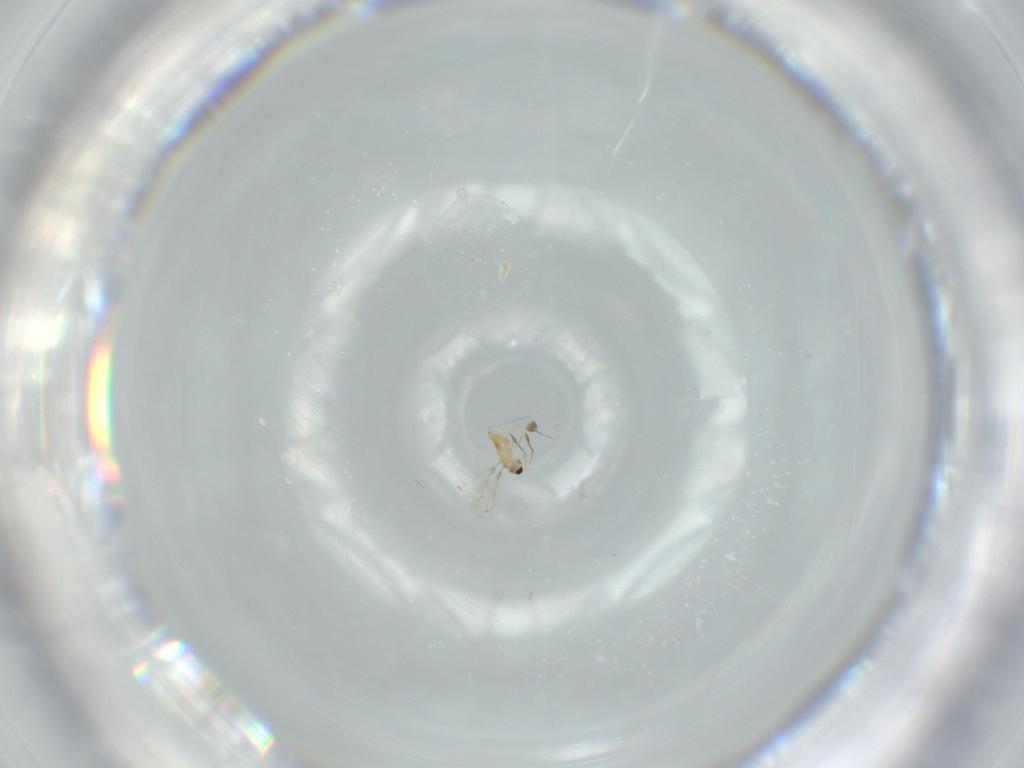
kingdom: Animalia
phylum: Arthropoda
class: Insecta
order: Hymenoptera
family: Mymaridae
